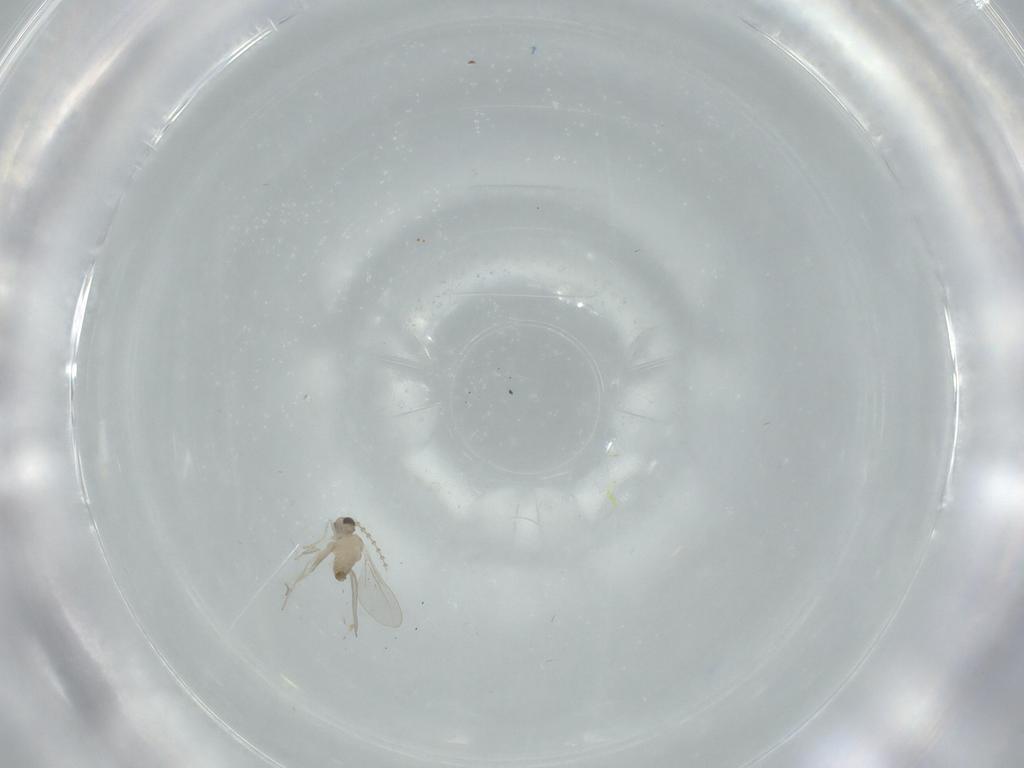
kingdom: Animalia
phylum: Arthropoda
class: Insecta
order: Diptera
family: Cecidomyiidae
